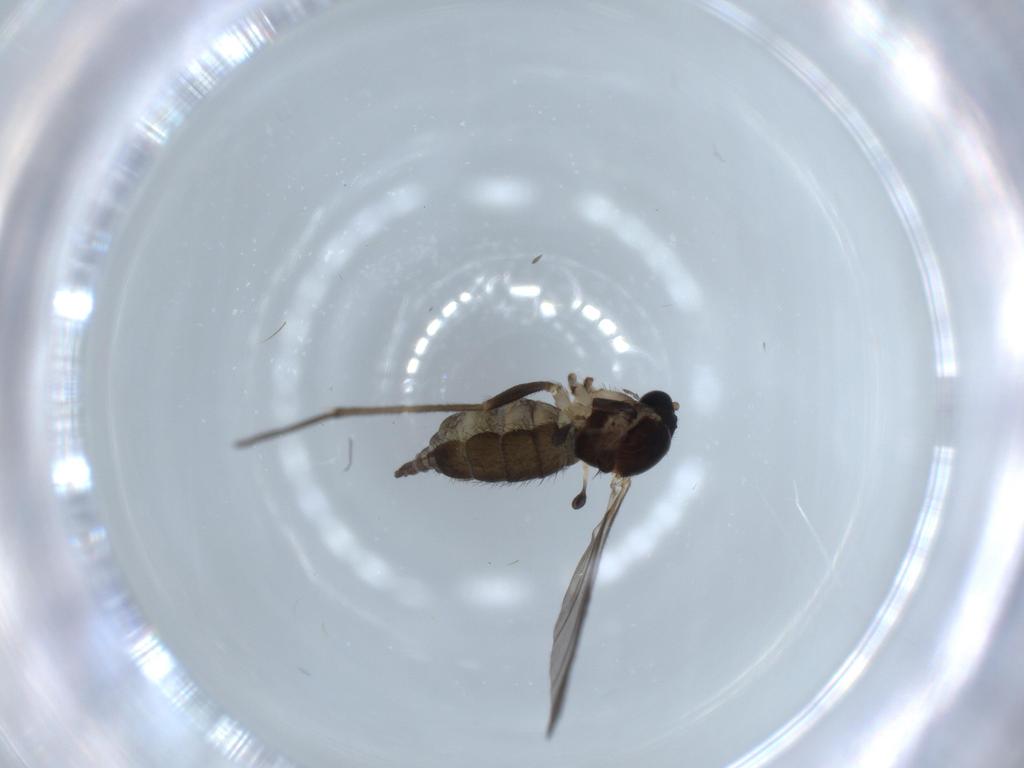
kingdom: Animalia
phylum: Arthropoda
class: Insecta
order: Diptera
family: Sciaridae
